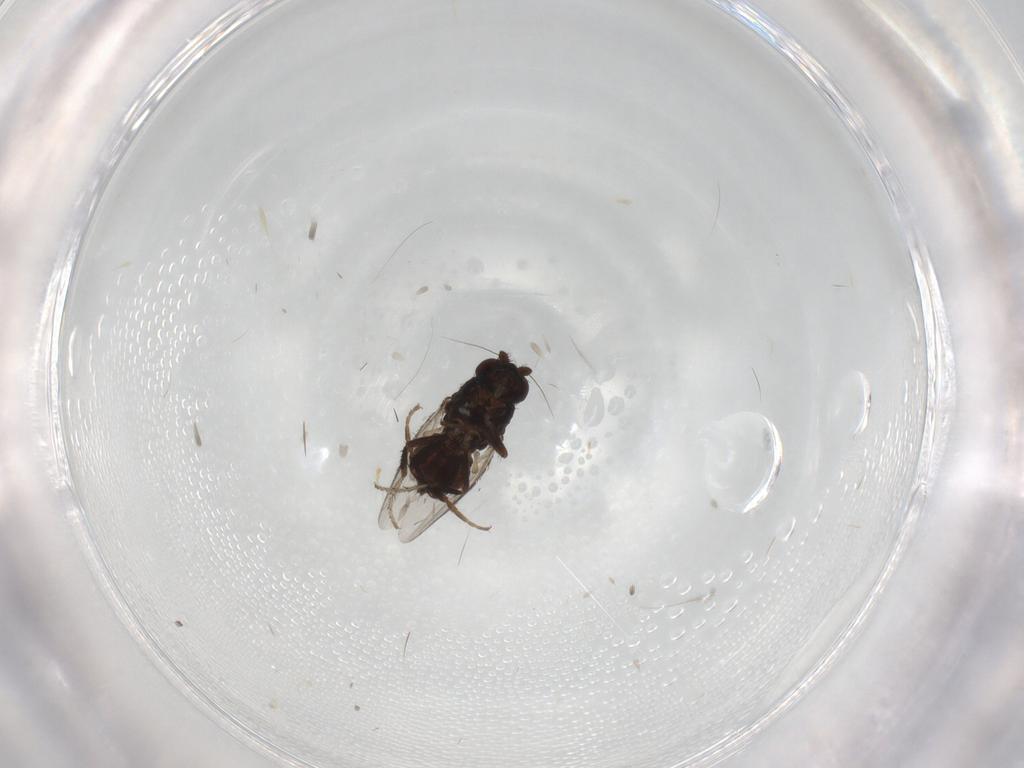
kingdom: Animalia
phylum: Arthropoda
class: Insecta
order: Diptera
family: Sphaeroceridae
